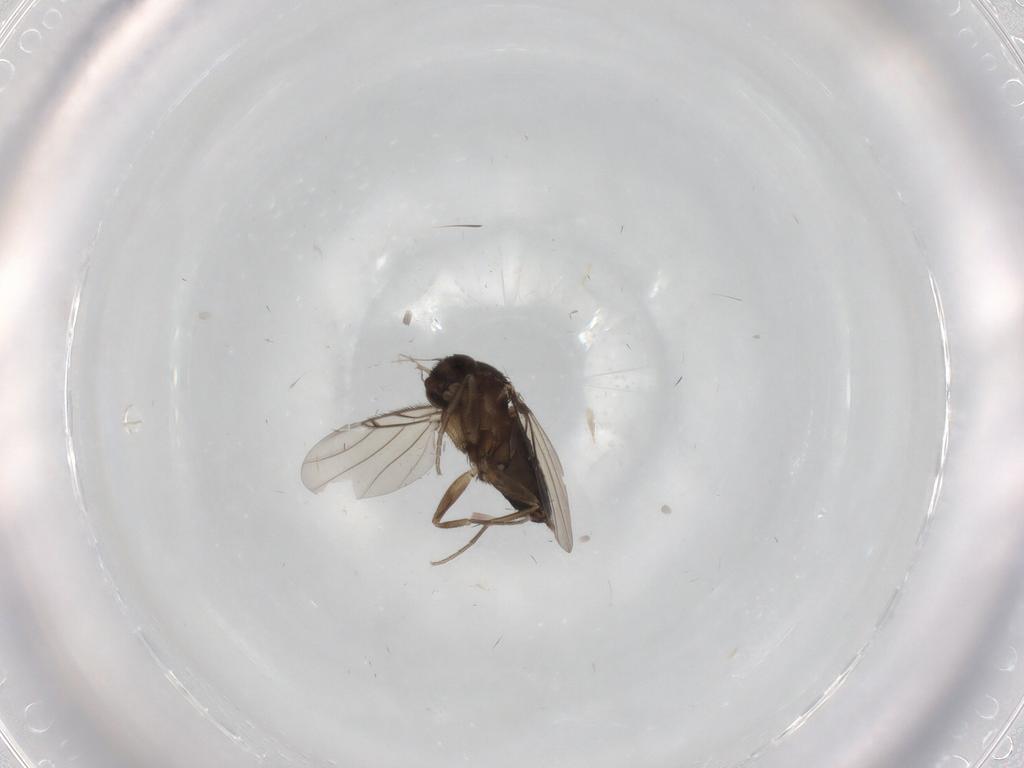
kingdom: Animalia
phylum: Arthropoda
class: Insecta
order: Diptera
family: Phoridae
